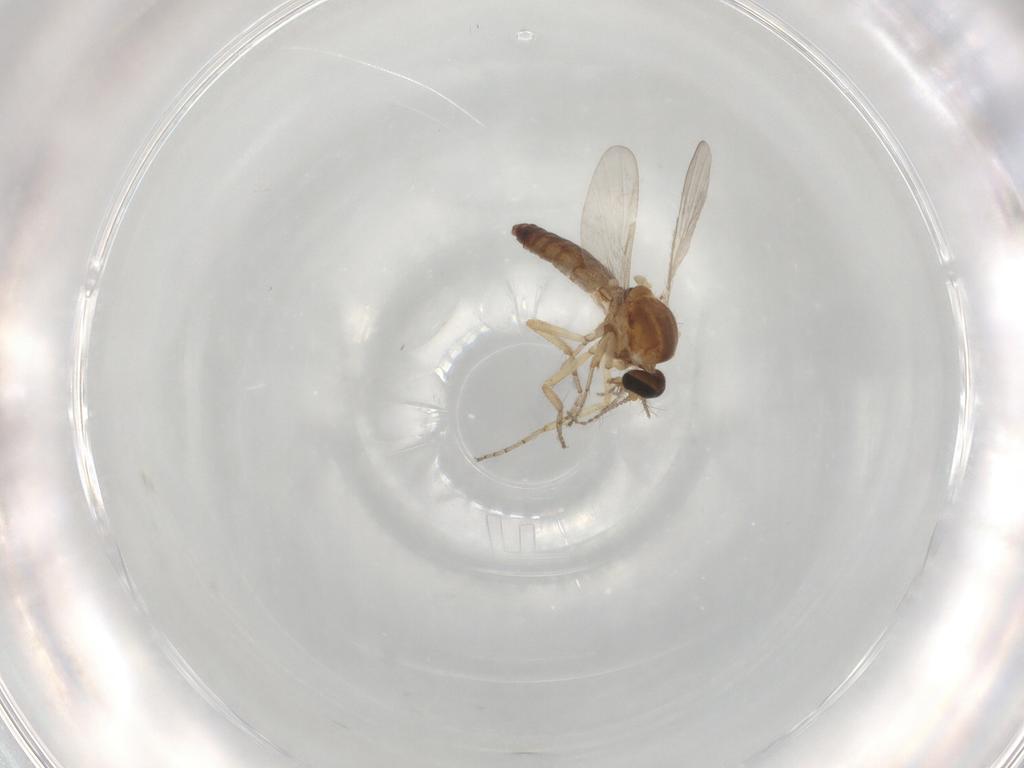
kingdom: Animalia
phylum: Arthropoda
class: Insecta
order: Diptera
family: Ceratopogonidae
